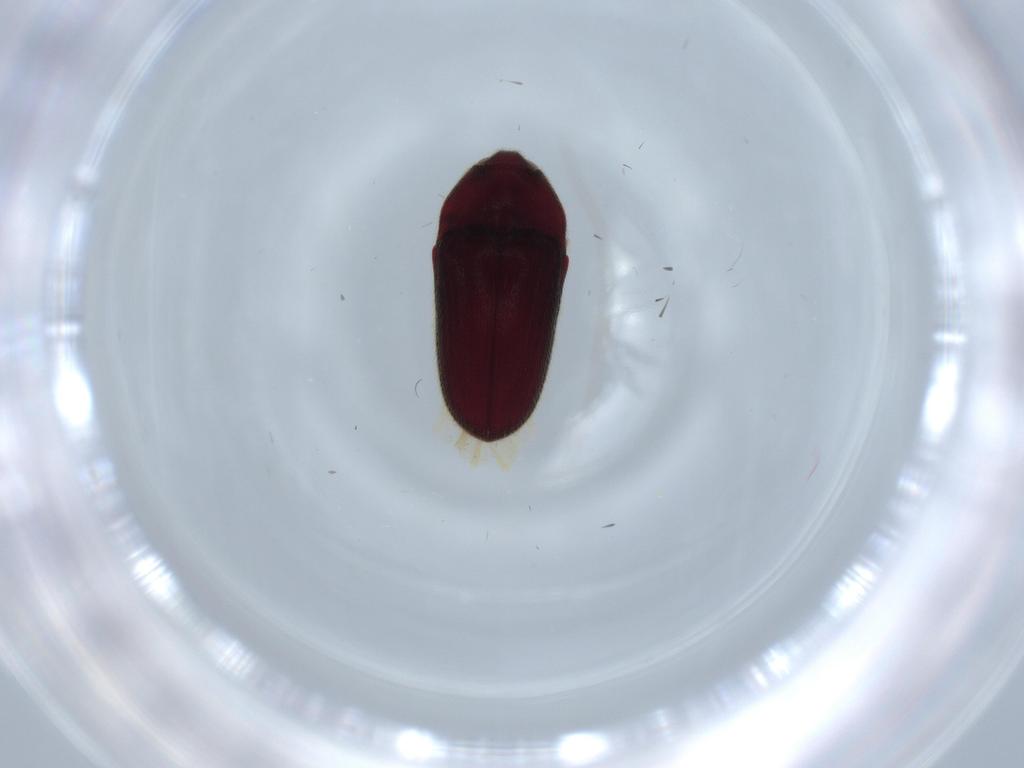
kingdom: Animalia
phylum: Arthropoda
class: Insecta
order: Coleoptera
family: Throscidae
